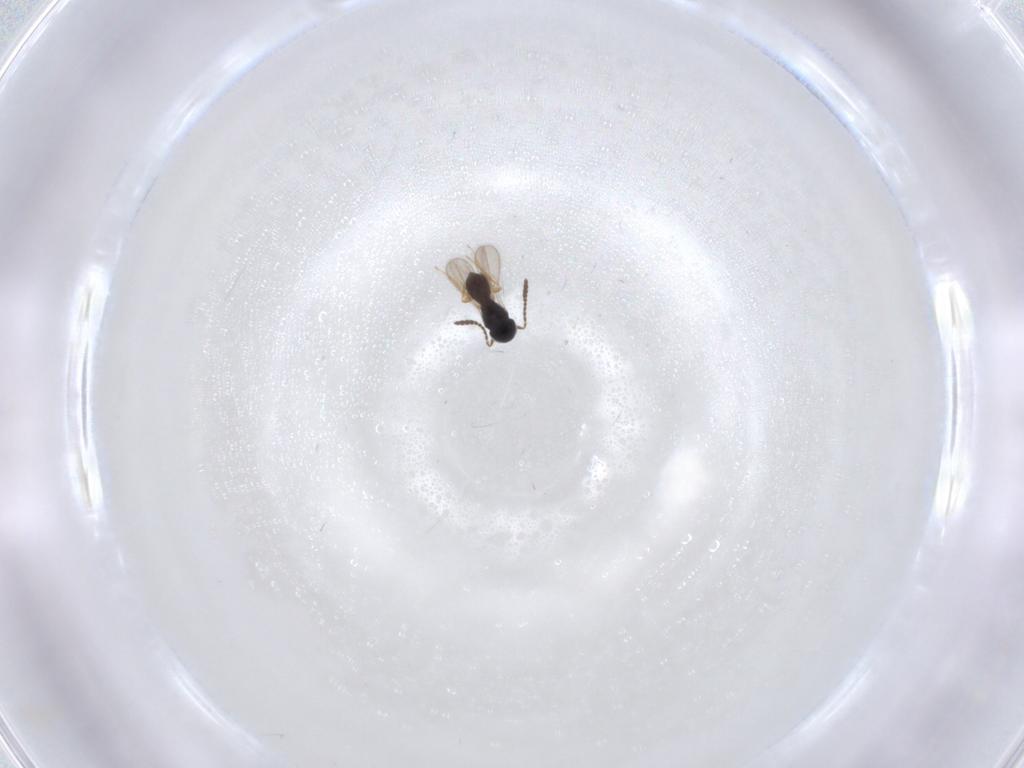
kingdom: Animalia
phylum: Arthropoda
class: Insecta
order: Hymenoptera
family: Scelionidae
